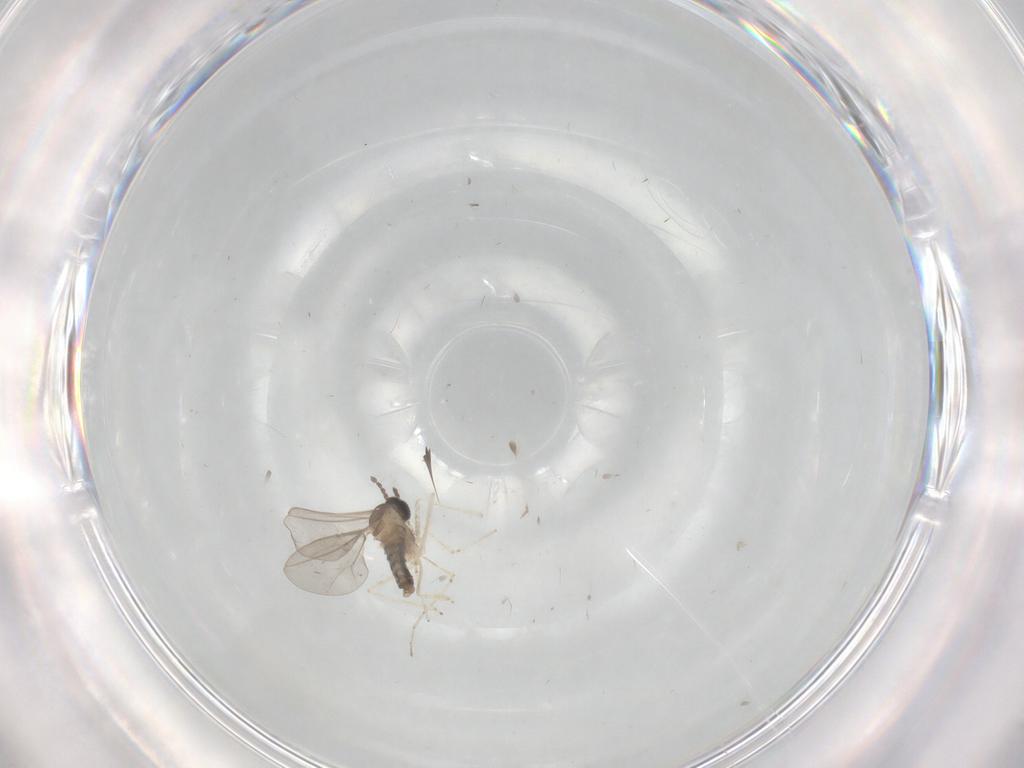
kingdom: Animalia
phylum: Arthropoda
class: Insecta
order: Diptera
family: Cecidomyiidae
